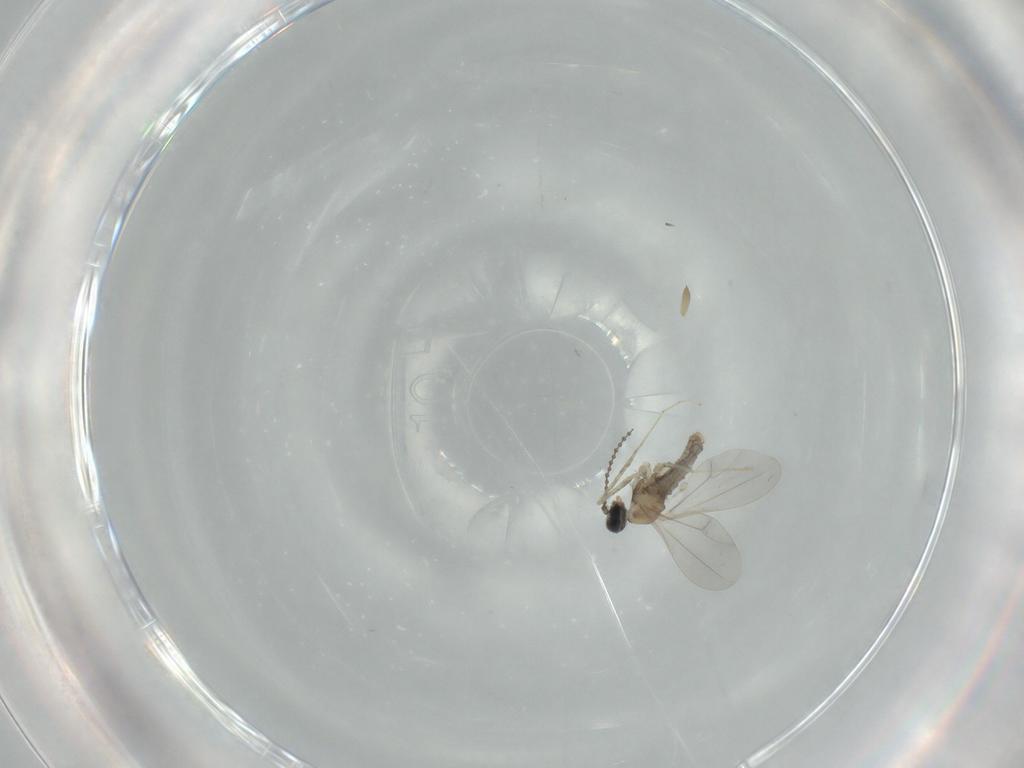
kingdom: Animalia
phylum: Arthropoda
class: Insecta
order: Diptera
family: Cecidomyiidae
